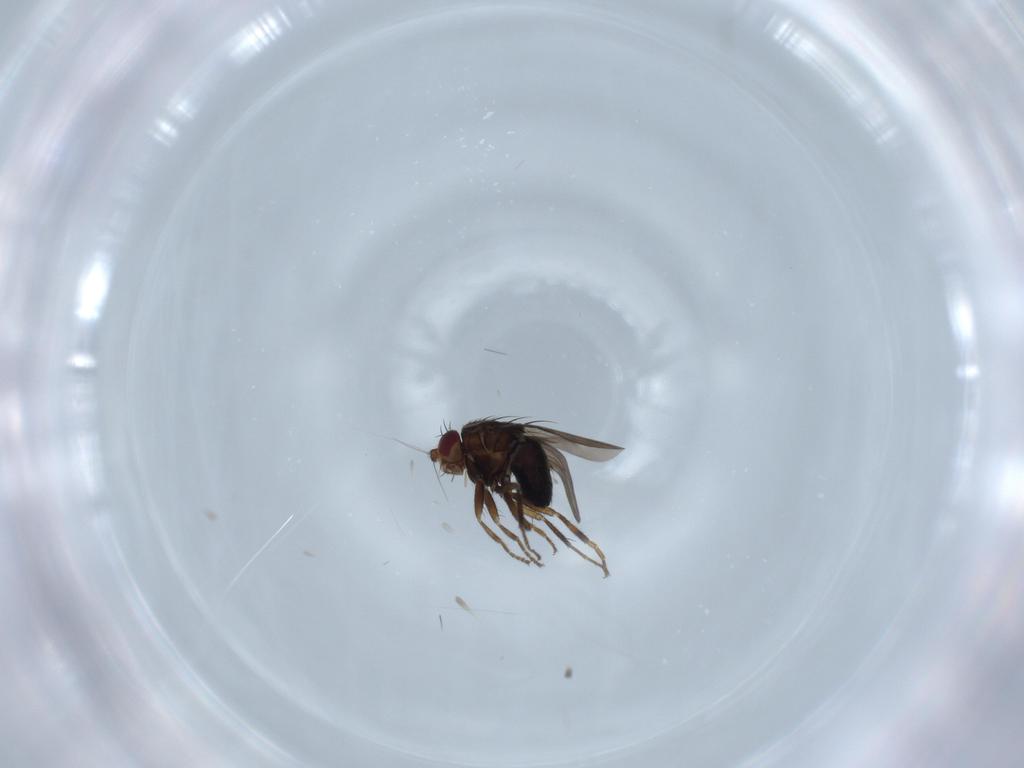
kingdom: Animalia
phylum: Arthropoda
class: Insecta
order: Diptera
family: Sphaeroceridae
